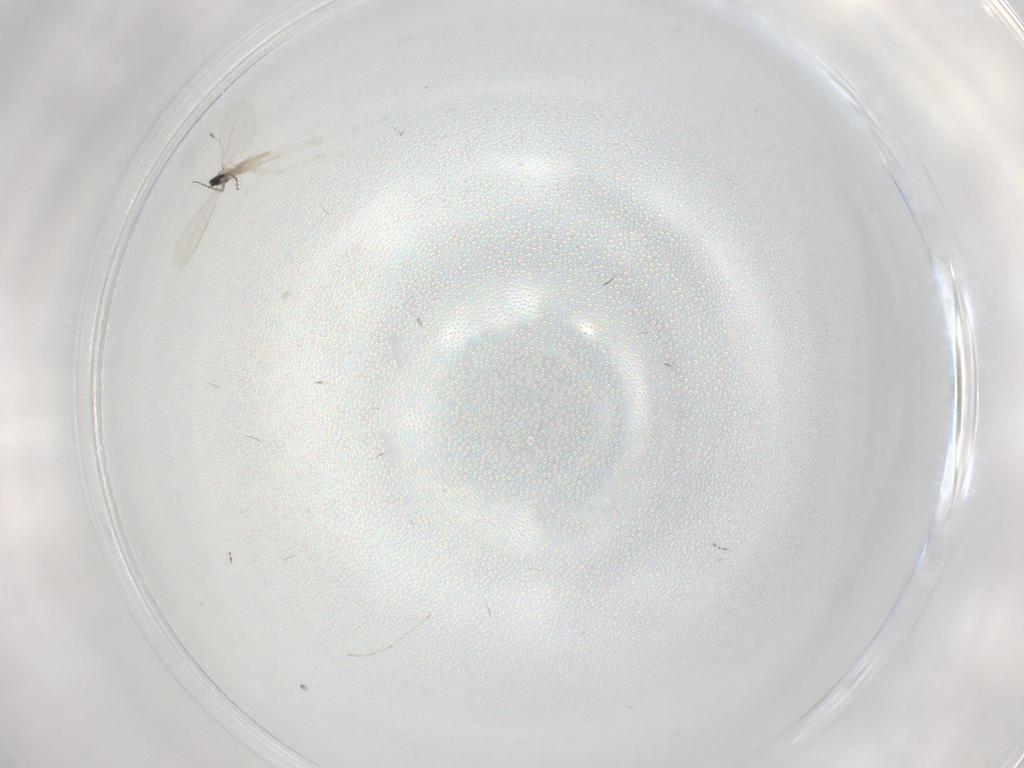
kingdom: Animalia
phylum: Arthropoda
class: Insecta
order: Diptera
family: Cecidomyiidae
